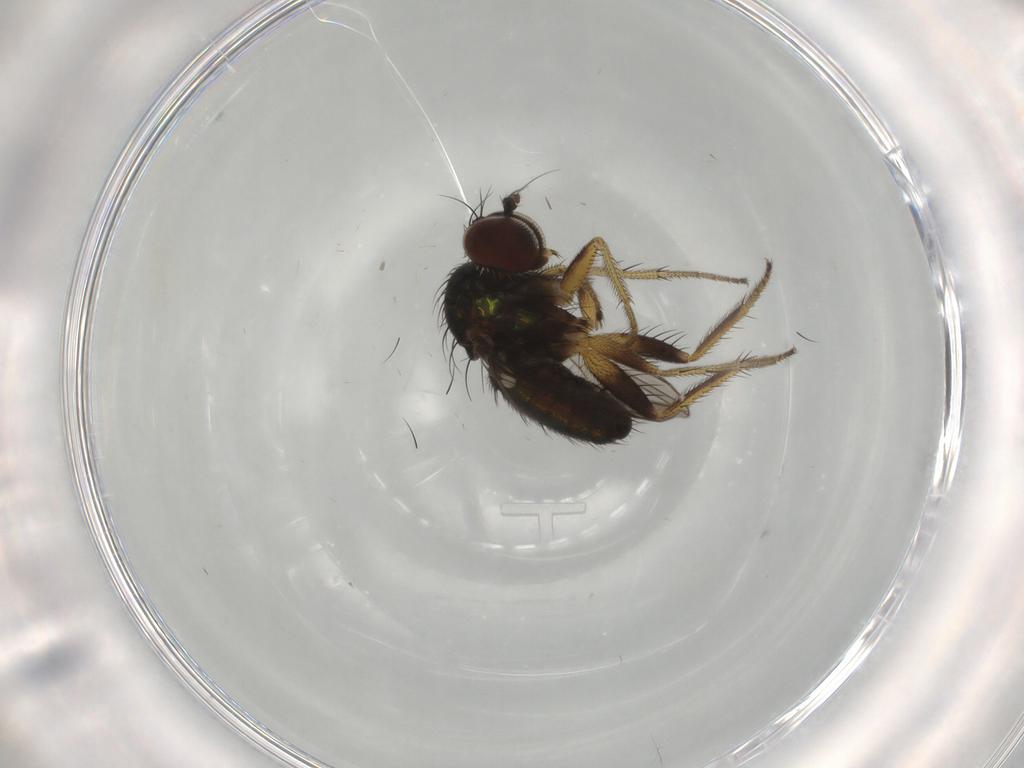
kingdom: Animalia
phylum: Arthropoda
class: Insecta
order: Diptera
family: Dolichopodidae
